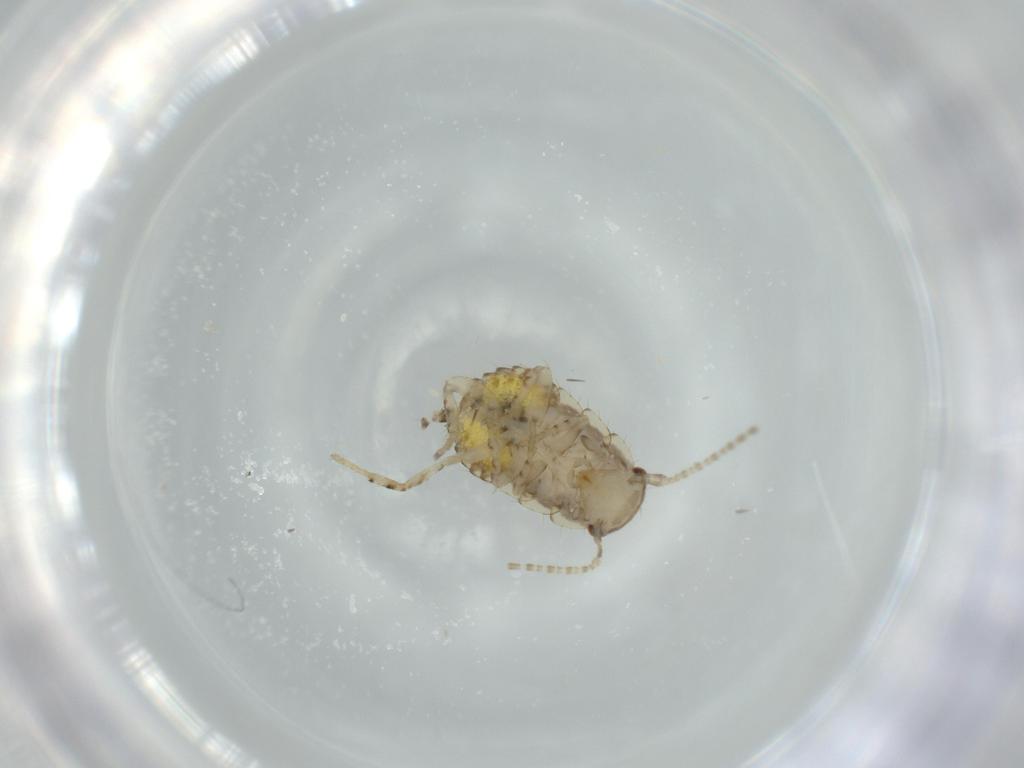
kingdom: Animalia
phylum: Arthropoda
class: Insecta
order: Blattodea
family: Ectobiidae
